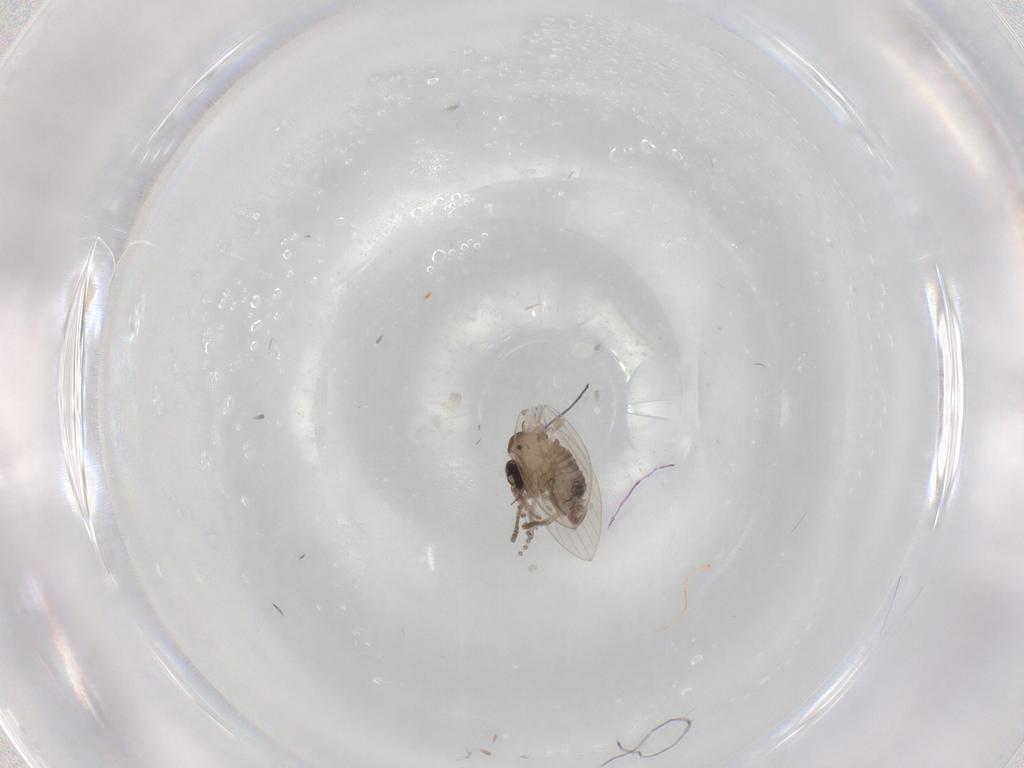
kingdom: Animalia
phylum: Arthropoda
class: Insecta
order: Diptera
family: Psychodidae
